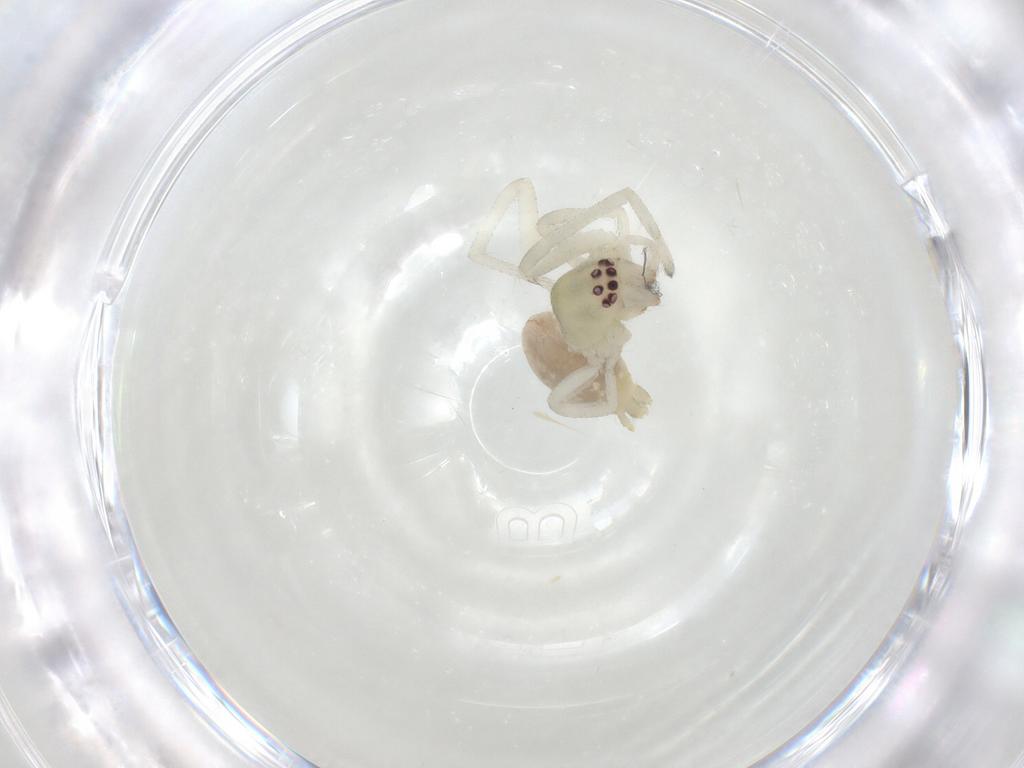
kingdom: Animalia
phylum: Arthropoda
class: Arachnida
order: Araneae
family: Cheiracanthiidae
